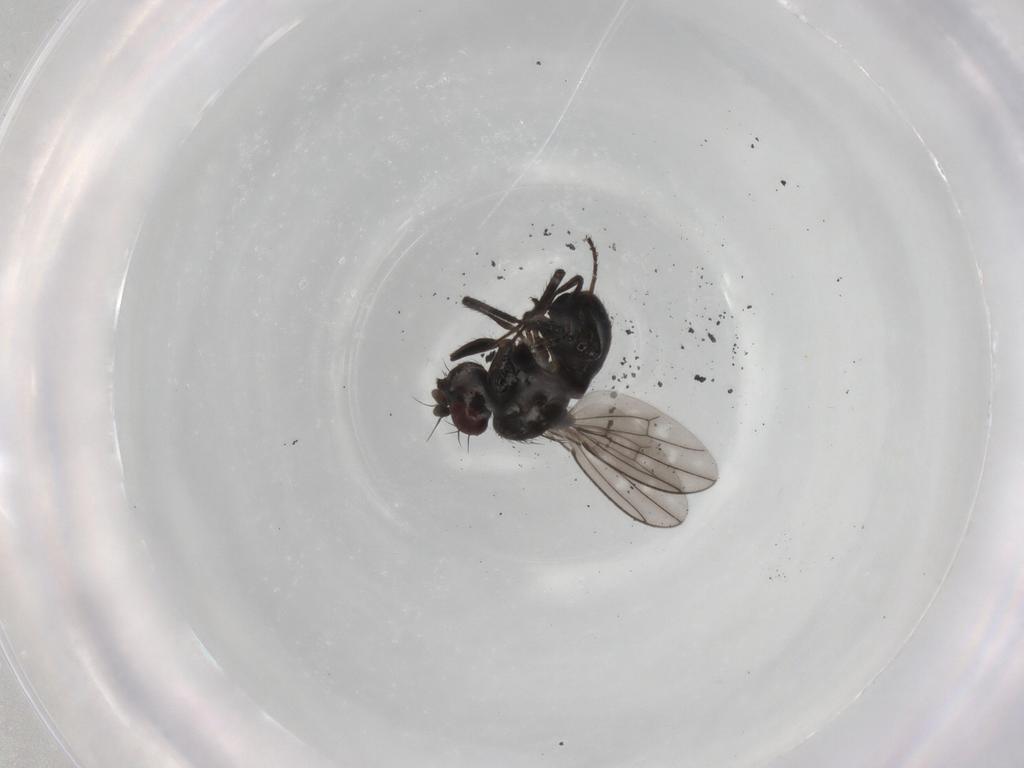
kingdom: Animalia
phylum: Arthropoda
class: Insecta
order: Diptera
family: Ephydridae
